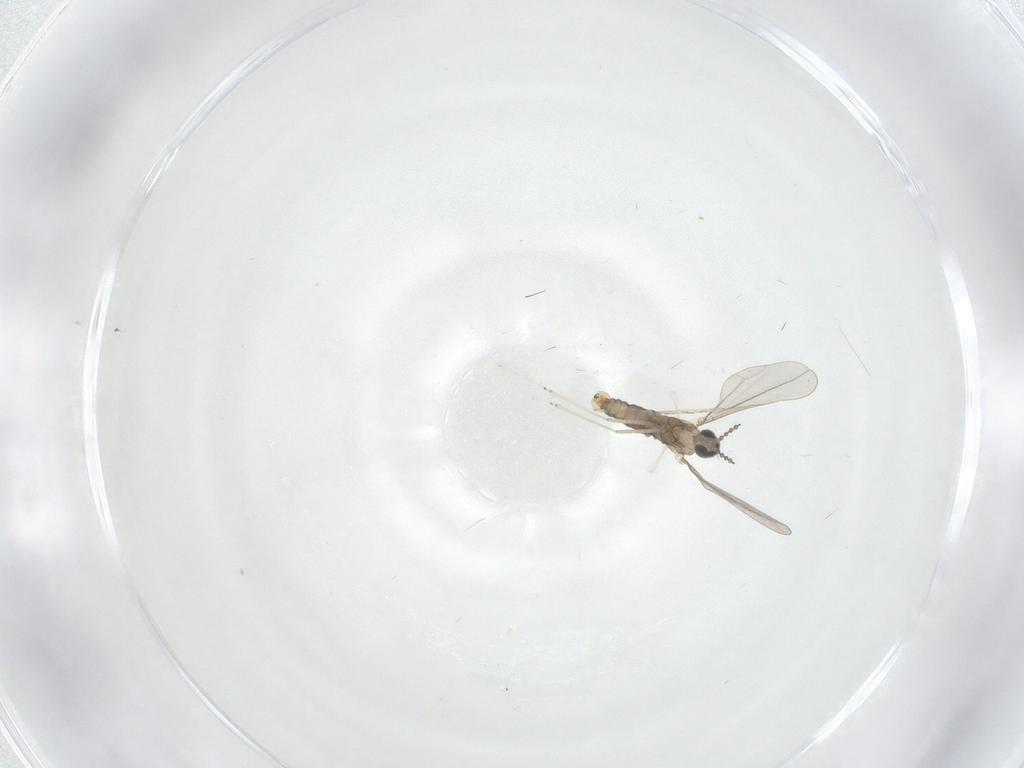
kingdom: Animalia
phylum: Arthropoda
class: Insecta
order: Diptera
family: Cecidomyiidae
